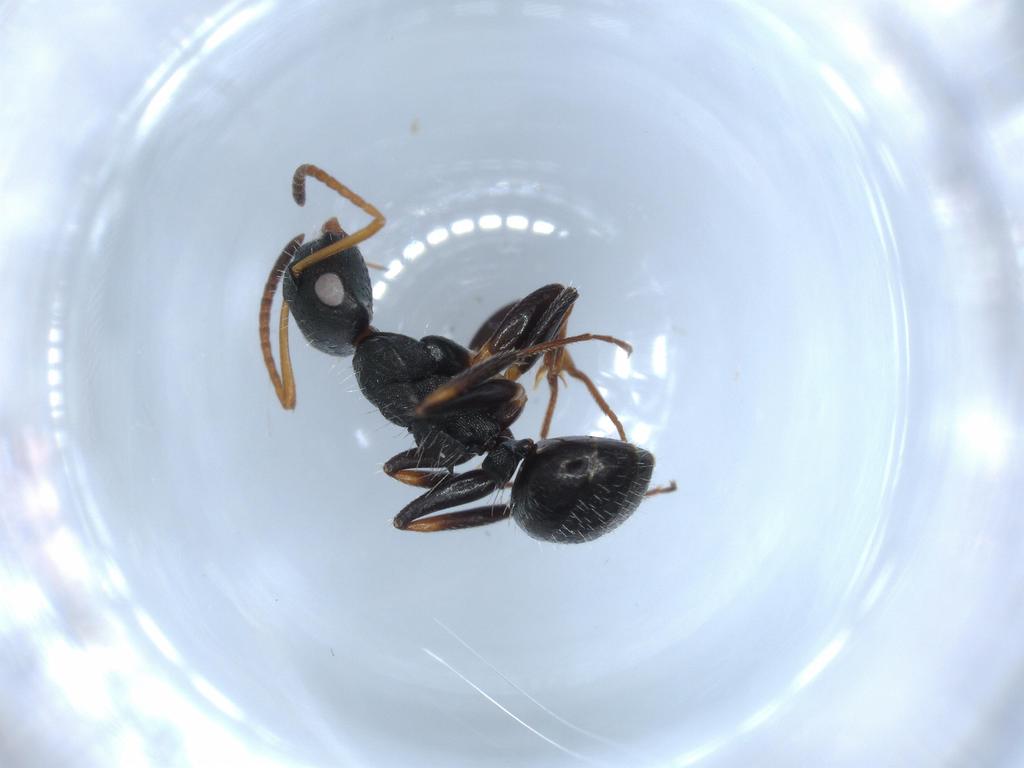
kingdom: Animalia
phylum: Arthropoda
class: Insecta
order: Hymenoptera
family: Formicidae
